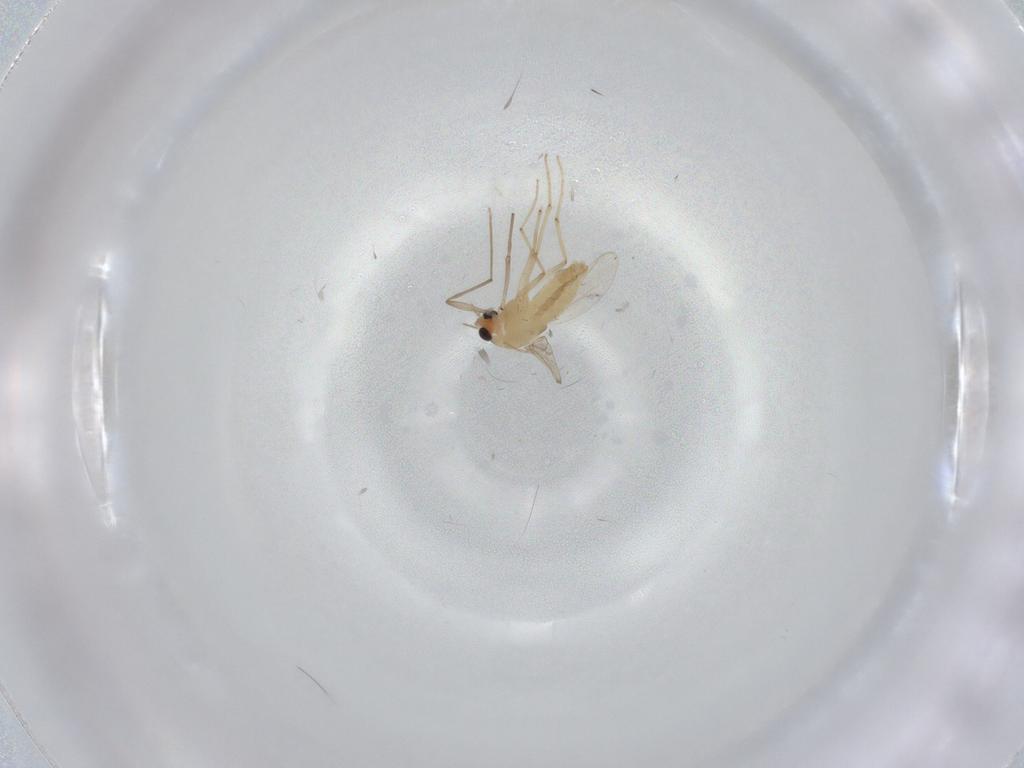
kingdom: Animalia
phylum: Arthropoda
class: Insecta
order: Diptera
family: Chironomidae
